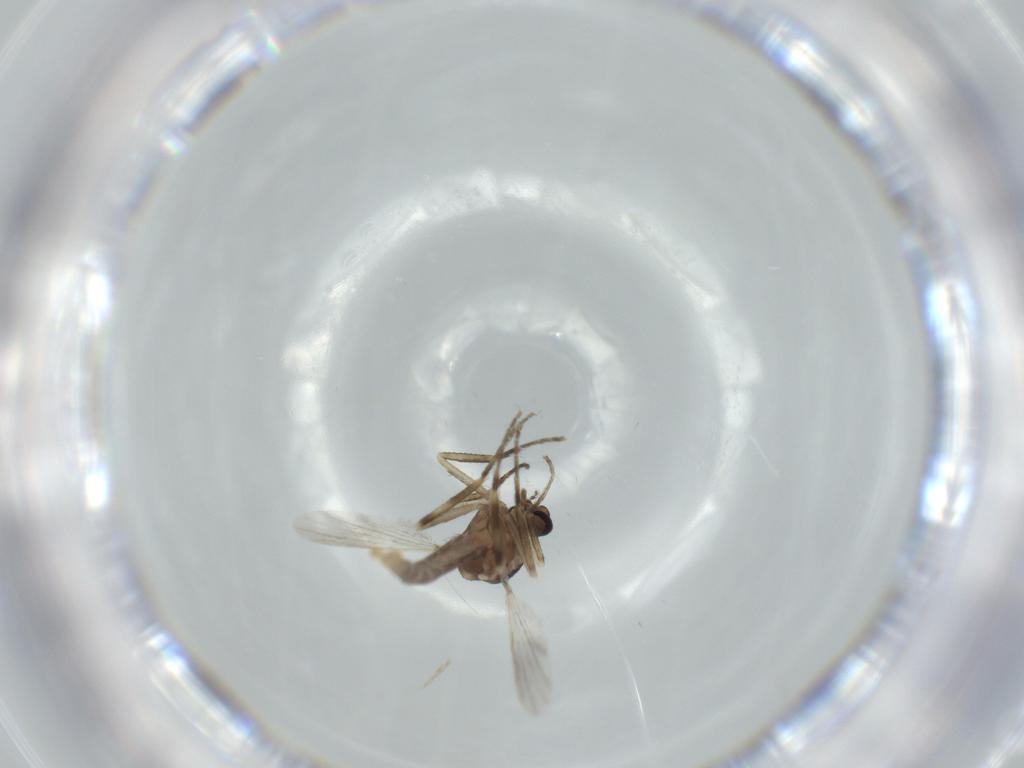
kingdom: Animalia
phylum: Arthropoda
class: Insecta
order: Diptera
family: Ceratopogonidae
